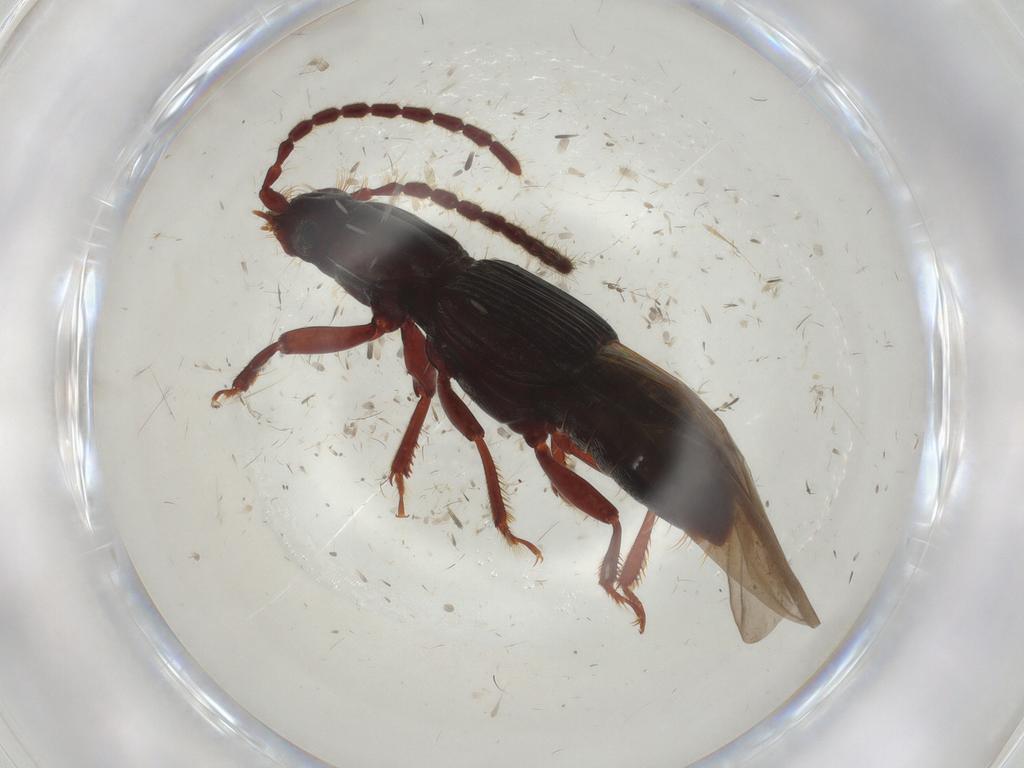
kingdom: Animalia
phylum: Arthropoda
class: Insecta
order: Coleoptera
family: Staphylinidae
